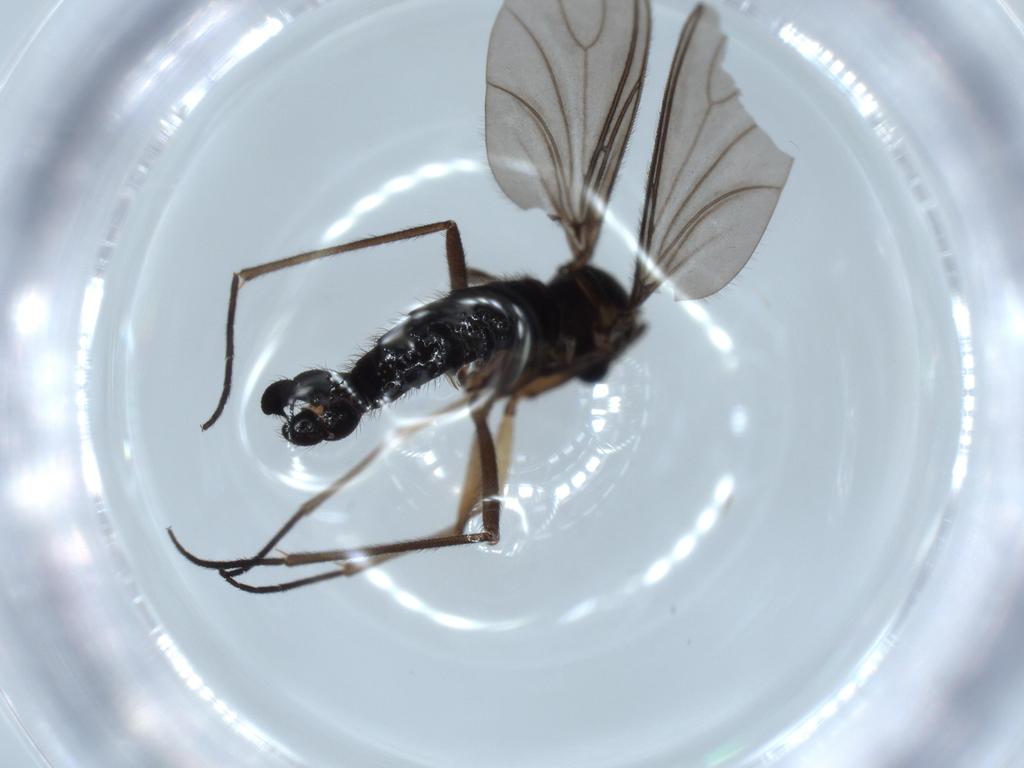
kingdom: Animalia
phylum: Arthropoda
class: Insecta
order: Diptera
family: Sciaridae
